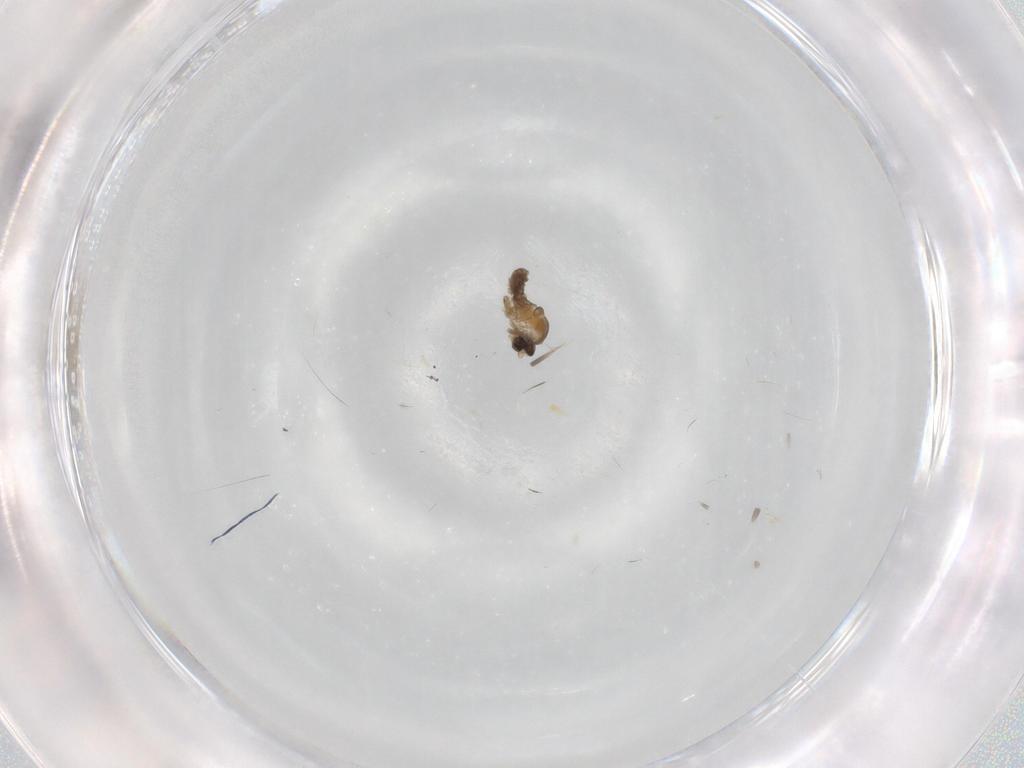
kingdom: Animalia
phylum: Arthropoda
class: Insecta
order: Diptera
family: Cecidomyiidae
